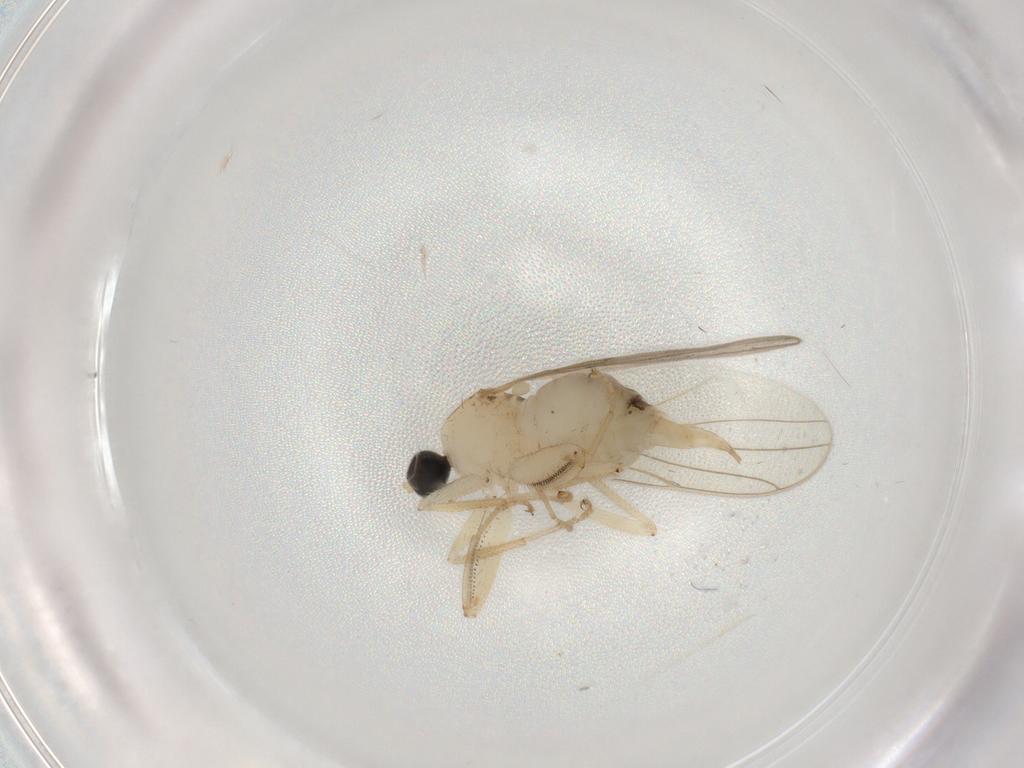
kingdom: Animalia
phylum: Arthropoda
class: Insecta
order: Diptera
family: Hybotidae
